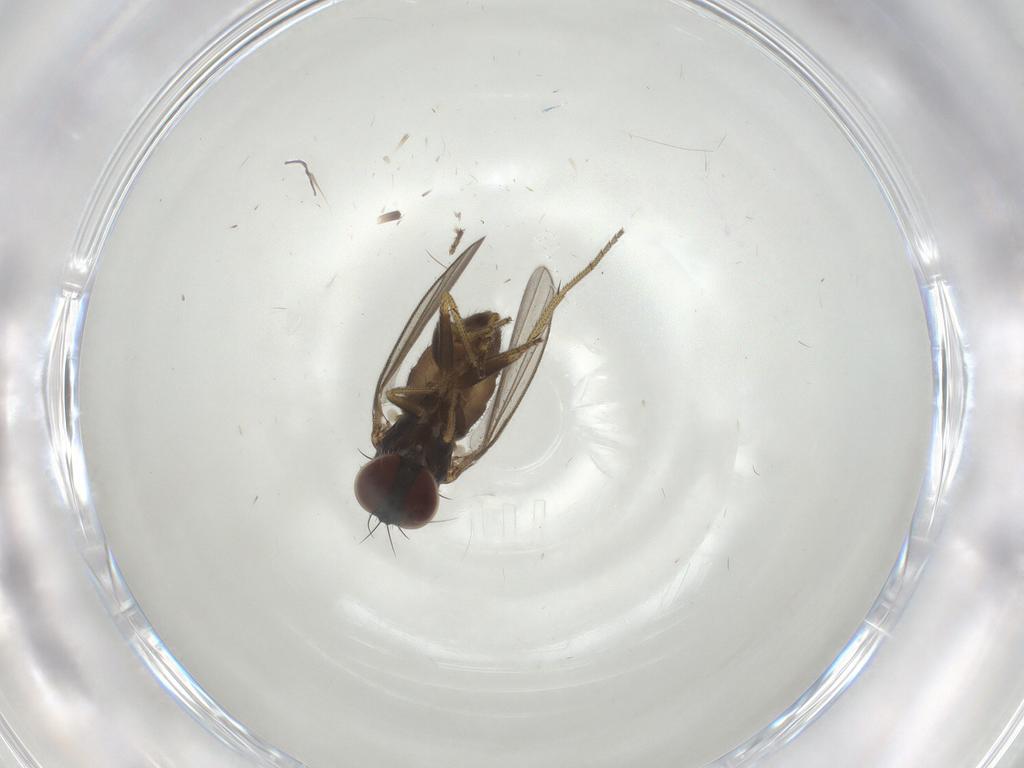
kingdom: Animalia
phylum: Arthropoda
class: Insecta
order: Diptera
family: Chironomidae
